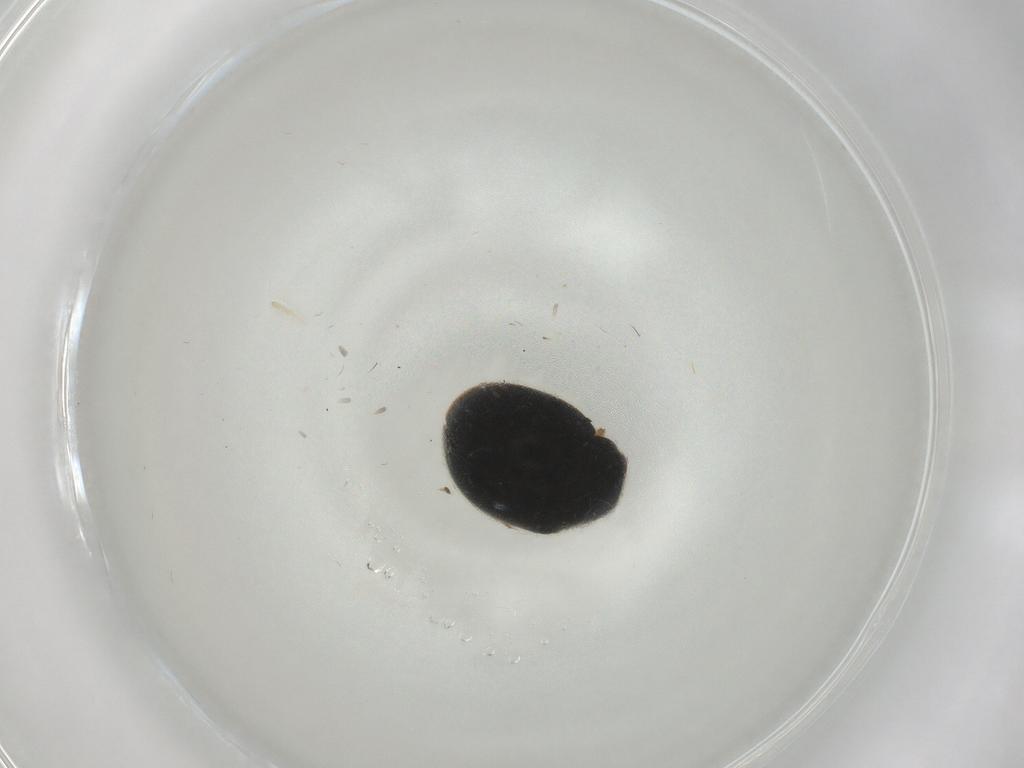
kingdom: Animalia
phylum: Arthropoda
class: Insecta
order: Coleoptera
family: Coccinellidae
